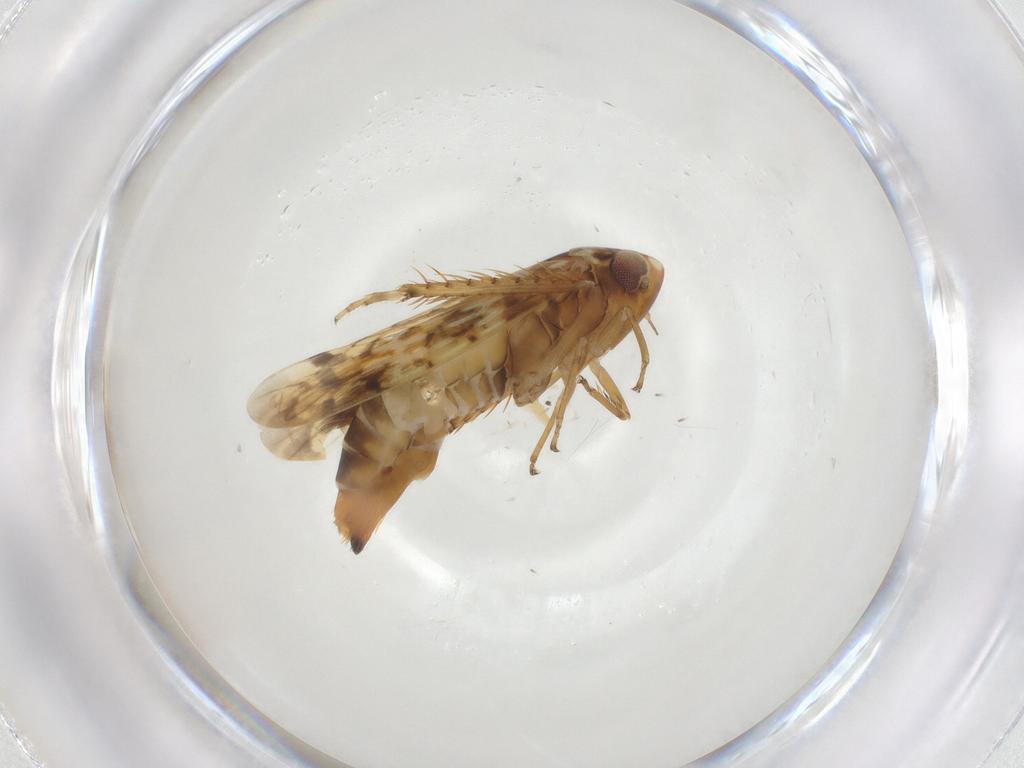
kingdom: Animalia
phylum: Arthropoda
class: Insecta
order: Hemiptera
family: Cicadellidae
